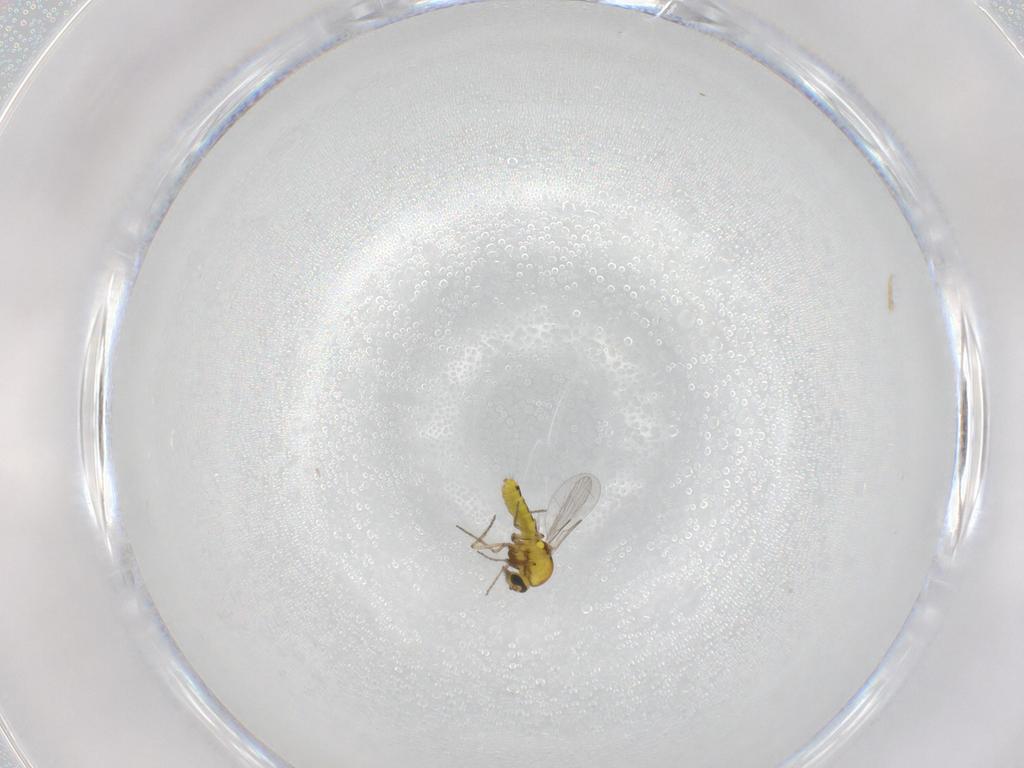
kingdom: Animalia
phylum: Arthropoda
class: Insecta
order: Diptera
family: Ceratopogonidae
